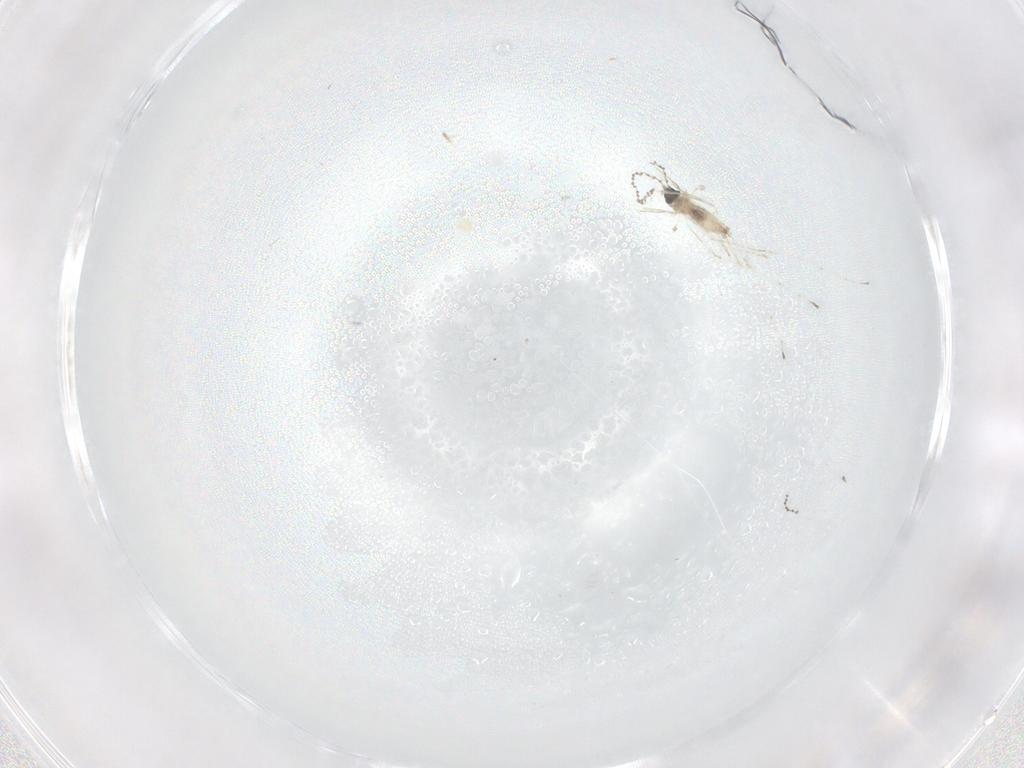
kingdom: Animalia
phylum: Arthropoda
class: Insecta
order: Diptera
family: Cecidomyiidae
